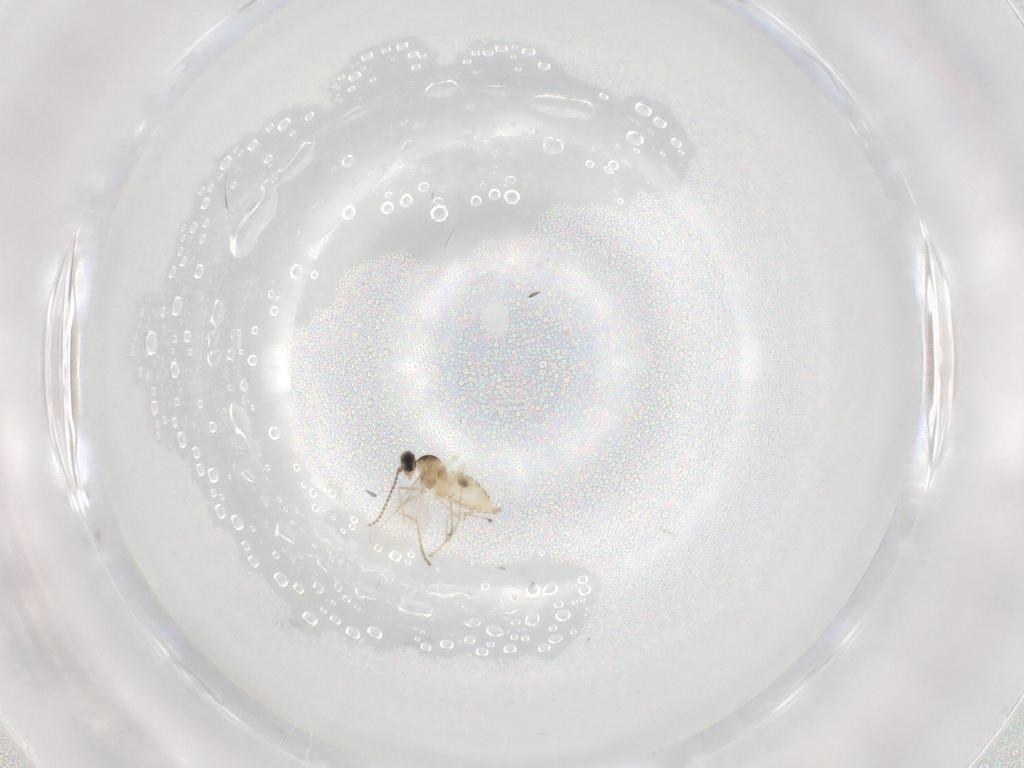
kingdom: Animalia
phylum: Arthropoda
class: Insecta
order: Diptera
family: Cecidomyiidae
